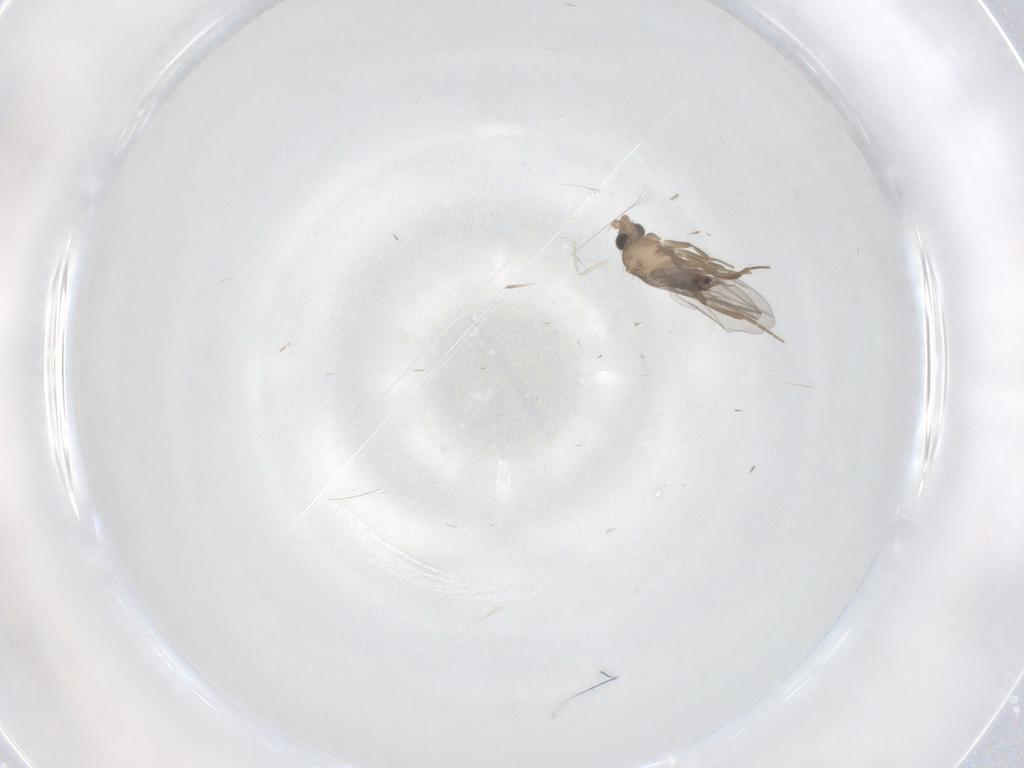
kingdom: Animalia
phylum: Arthropoda
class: Insecta
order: Diptera
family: Cecidomyiidae
